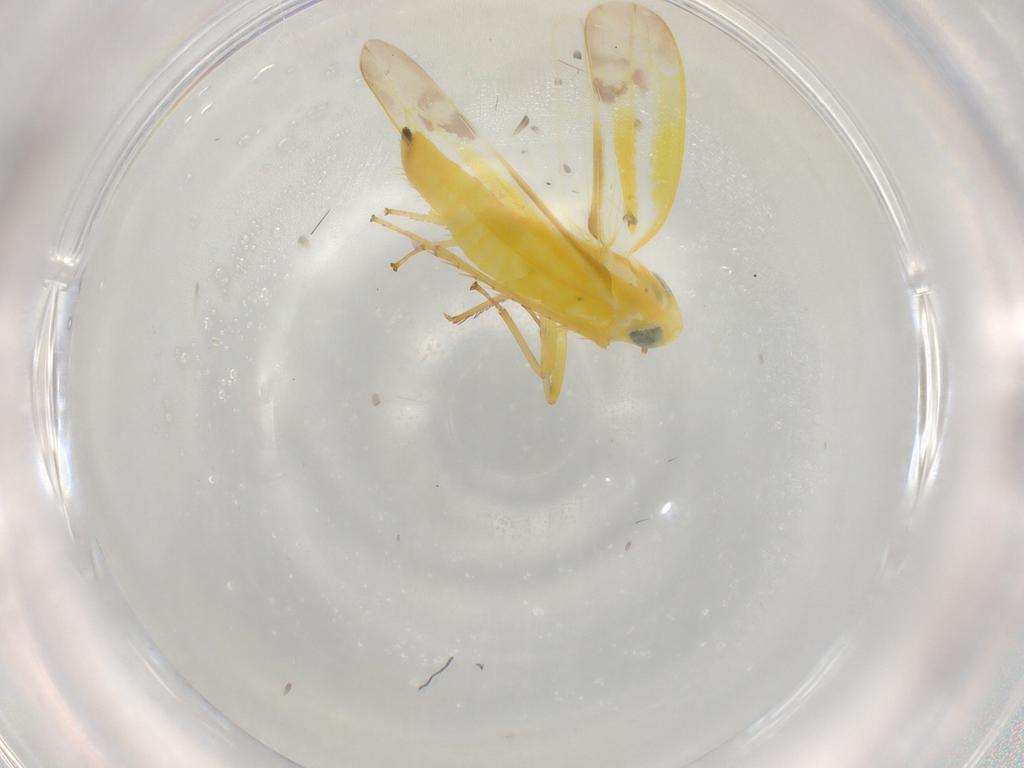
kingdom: Animalia
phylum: Arthropoda
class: Insecta
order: Hemiptera
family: Cicadellidae
